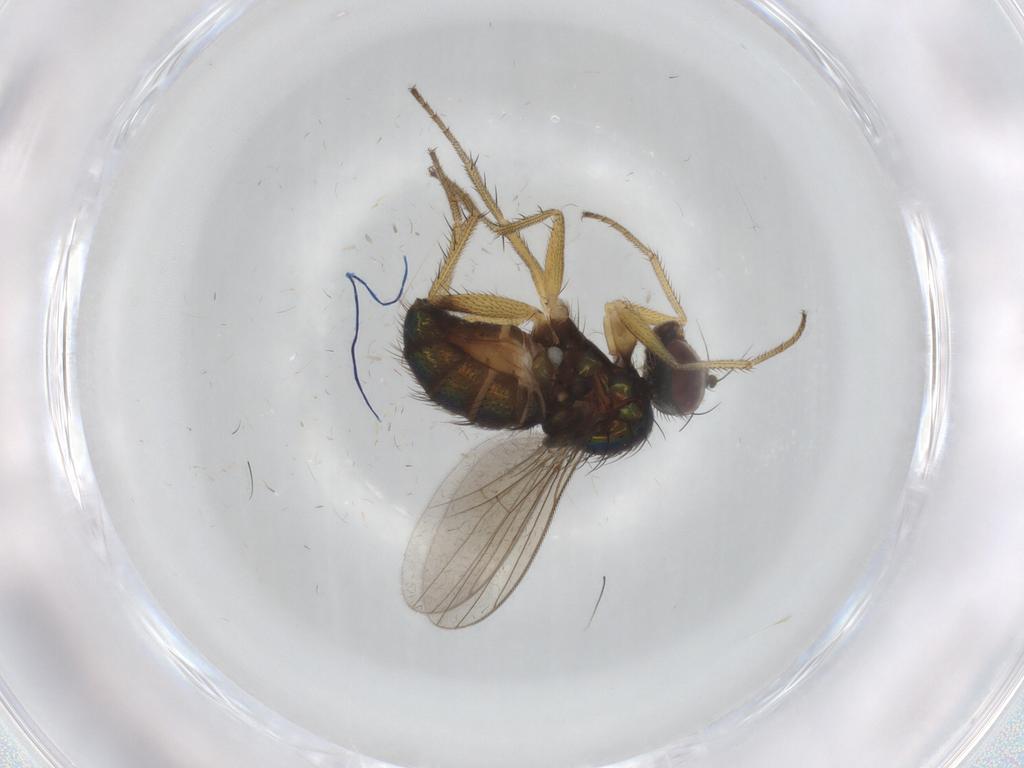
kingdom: Animalia
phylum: Arthropoda
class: Insecta
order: Diptera
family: Dolichopodidae
